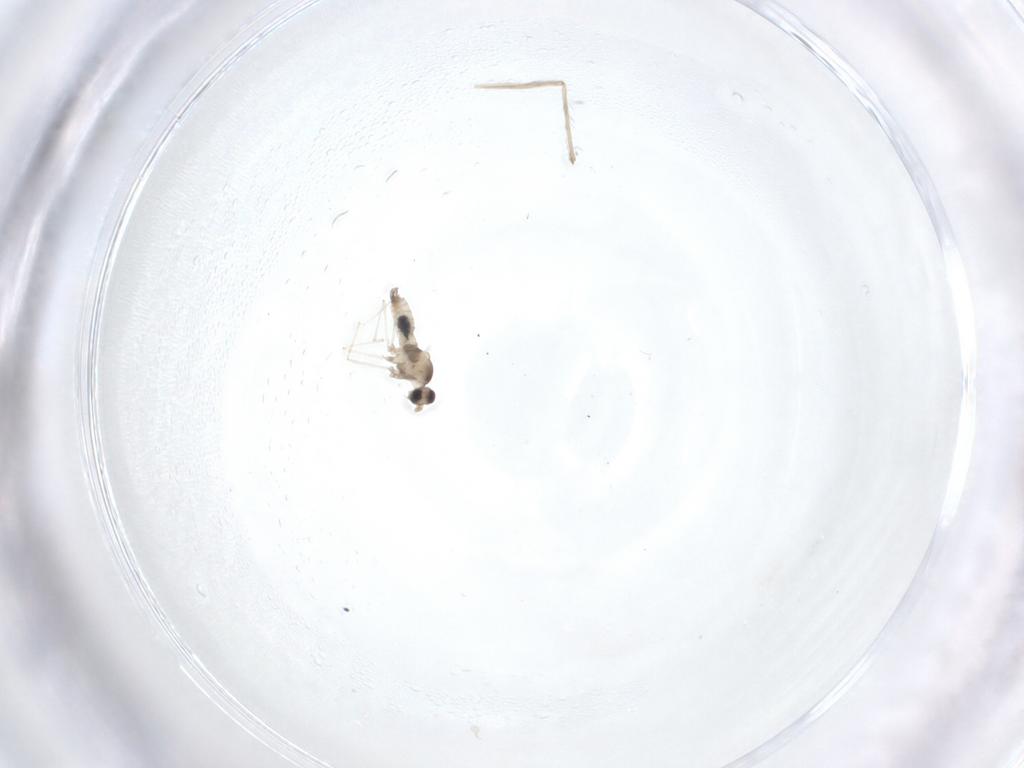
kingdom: Animalia
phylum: Arthropoda
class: Insecta
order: Diptera
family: Cecidomyiidae
